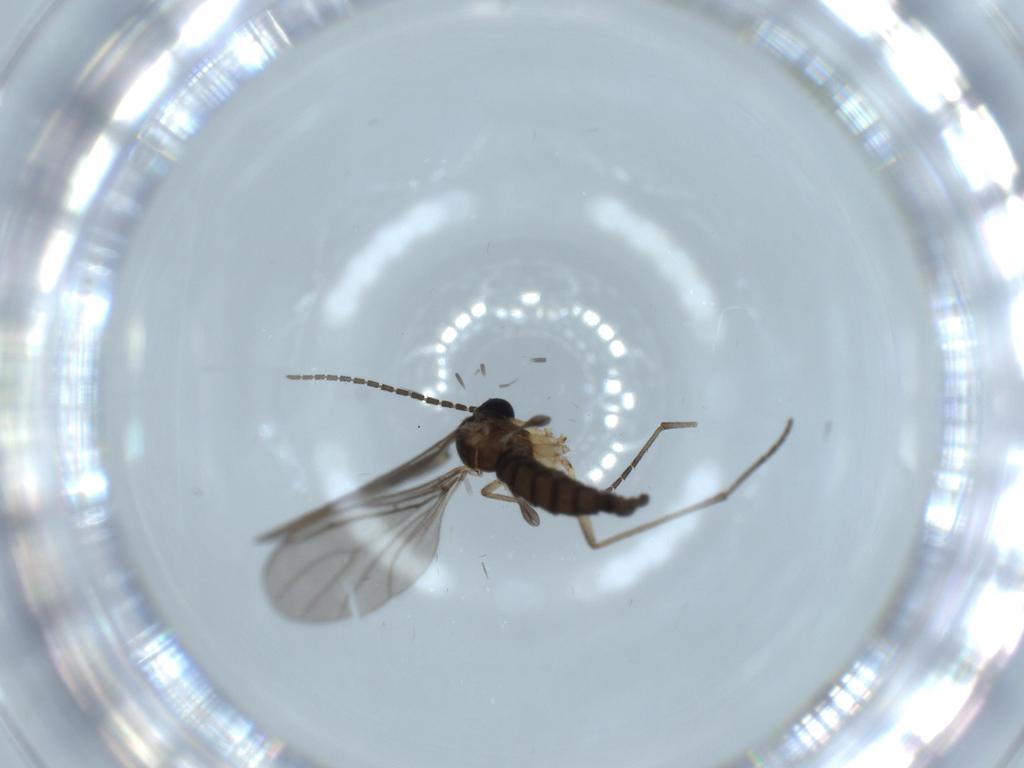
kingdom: Animalia
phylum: Arthropoda
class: Insecta
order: Diptera
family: Sciaridae
